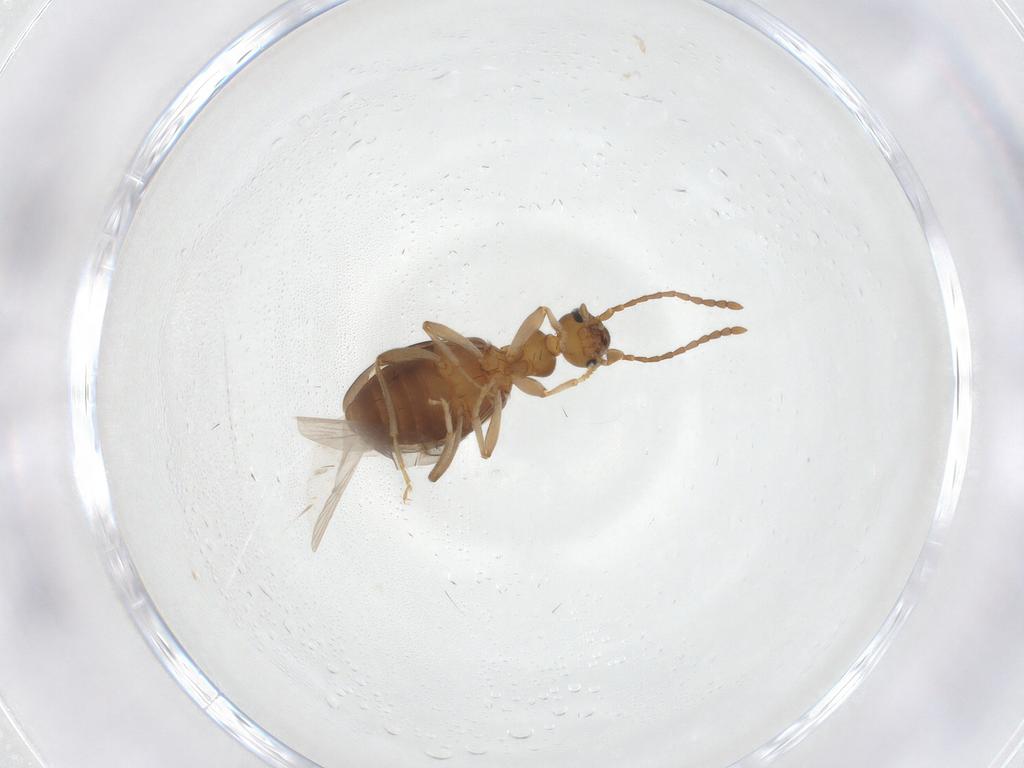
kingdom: Animalia
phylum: Arthropoda
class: Insecta
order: Coleoptera
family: Anthicidae
